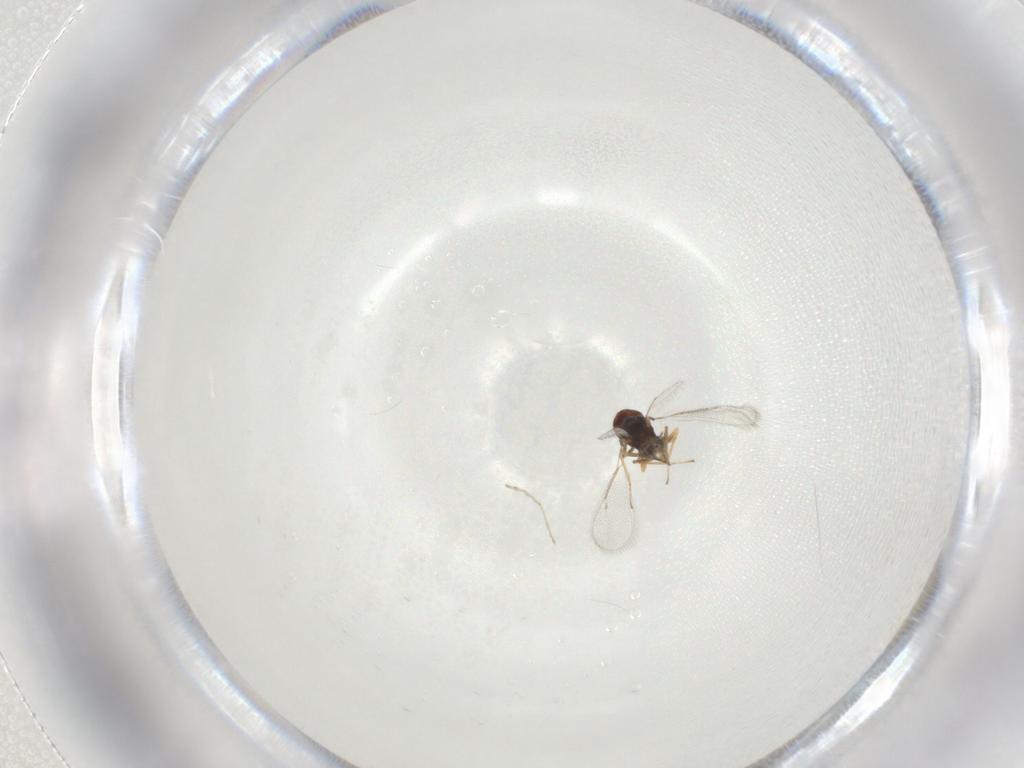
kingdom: Animalia
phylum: Arthropoda
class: Insecta
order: Hymenoptera
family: Eulophidae
